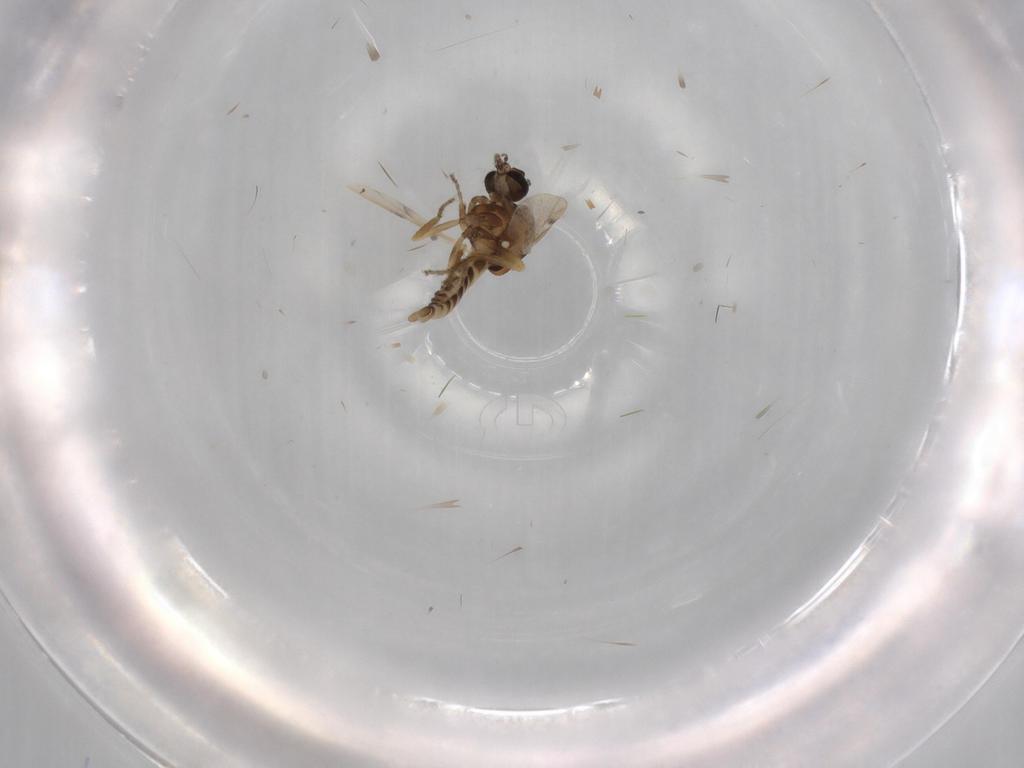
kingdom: Animalia
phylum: Arthropoda
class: Insecta
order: Diptera
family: Ceratopogonidae
